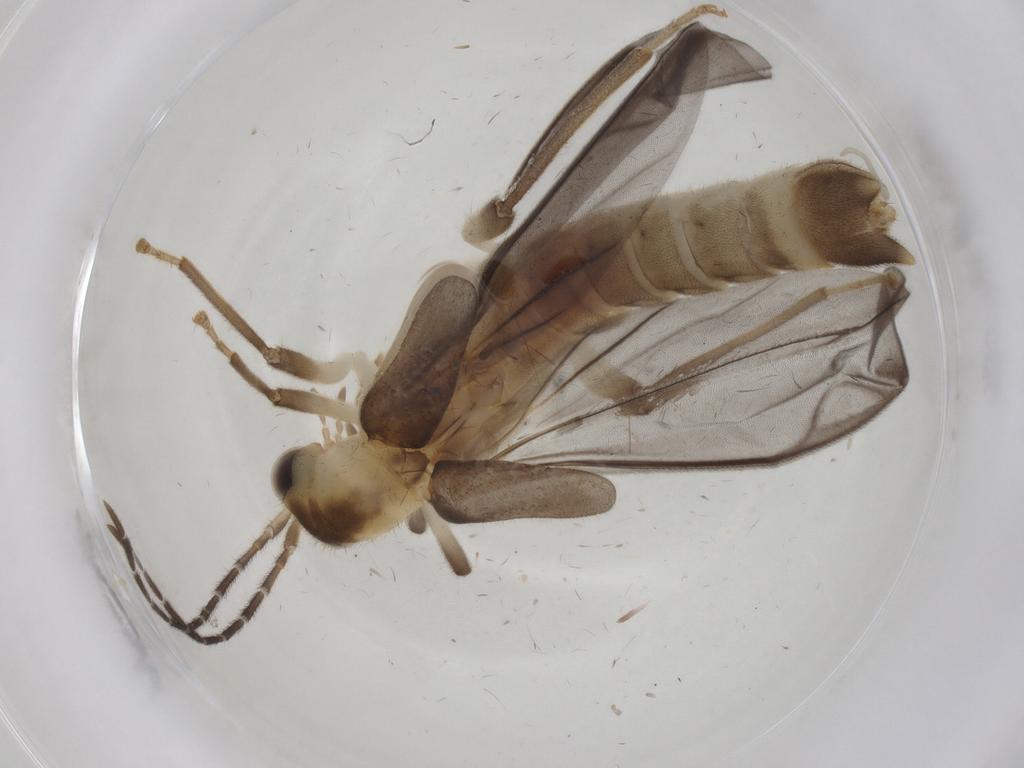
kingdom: Animalia
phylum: Arthropoda
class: Insecta
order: Coleoptera
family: Cantharidae
